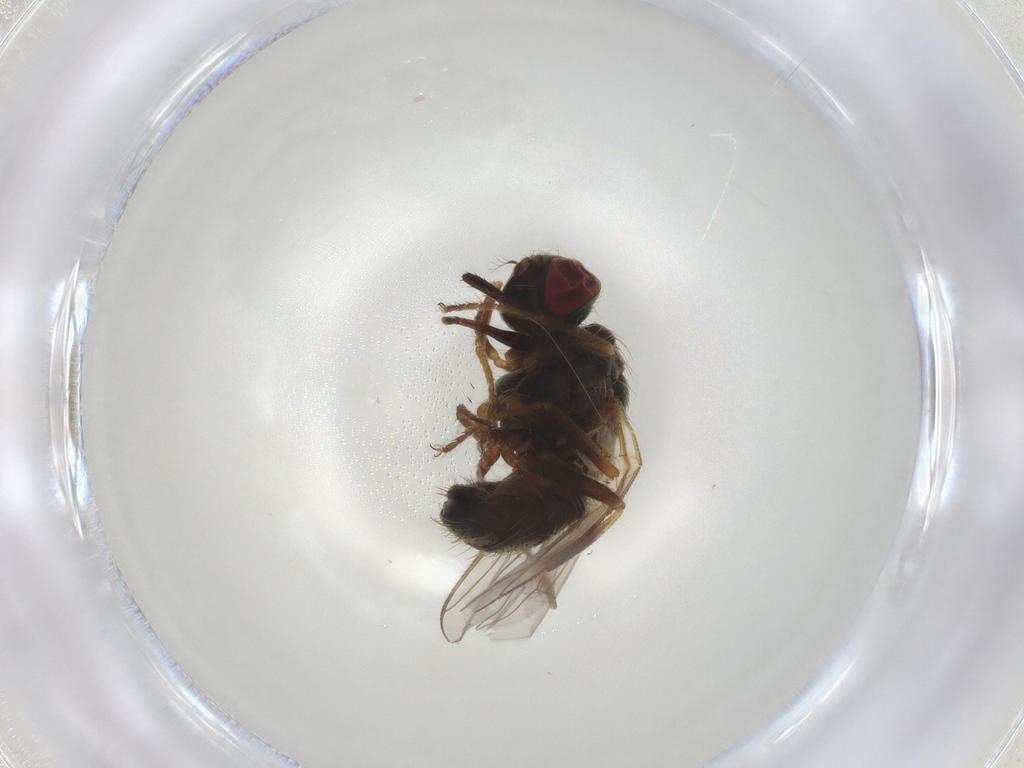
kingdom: Animalia
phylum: Arthropoda
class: Insecta
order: Diptera
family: Muscidae
